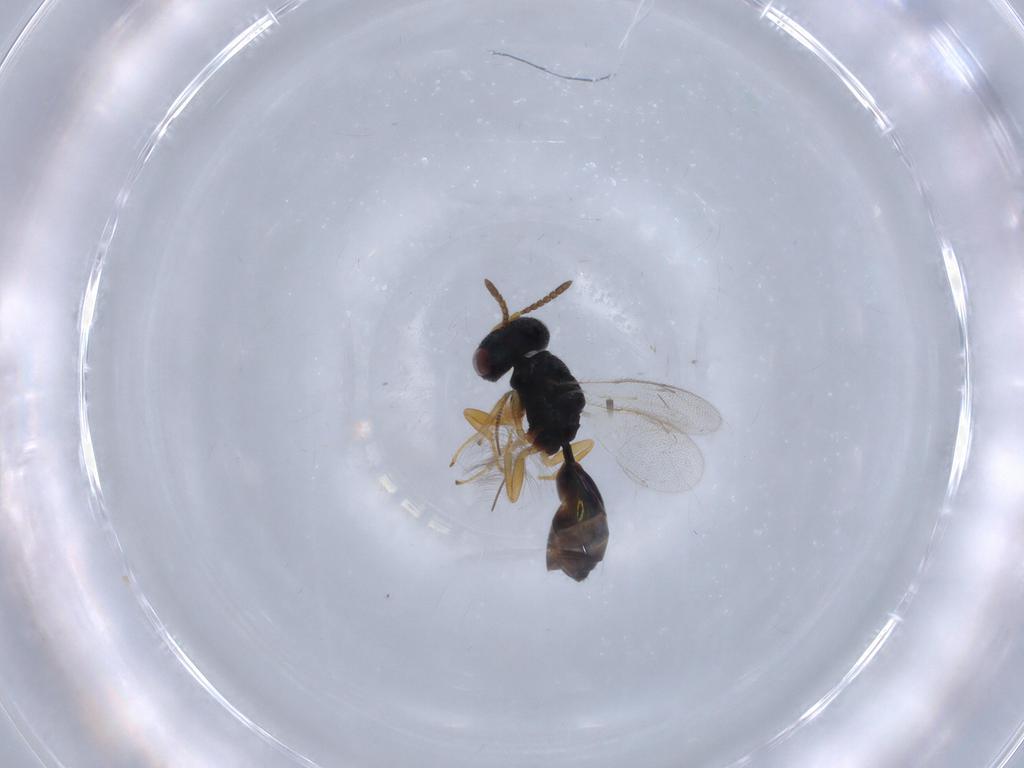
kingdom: Animalia
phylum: Arthropoda
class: Insecta
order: Hymenoptera
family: Pteromalidae
